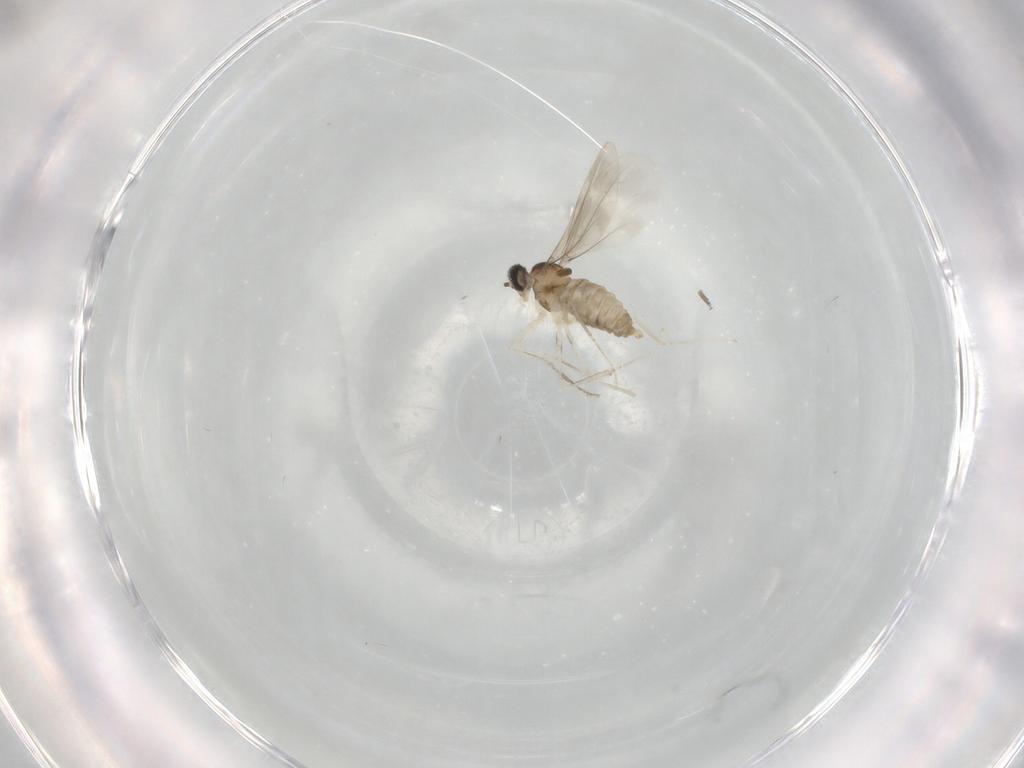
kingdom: Animalia
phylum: Arthropoda
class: Insecta
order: Diptera
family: Cecidomyiidae
